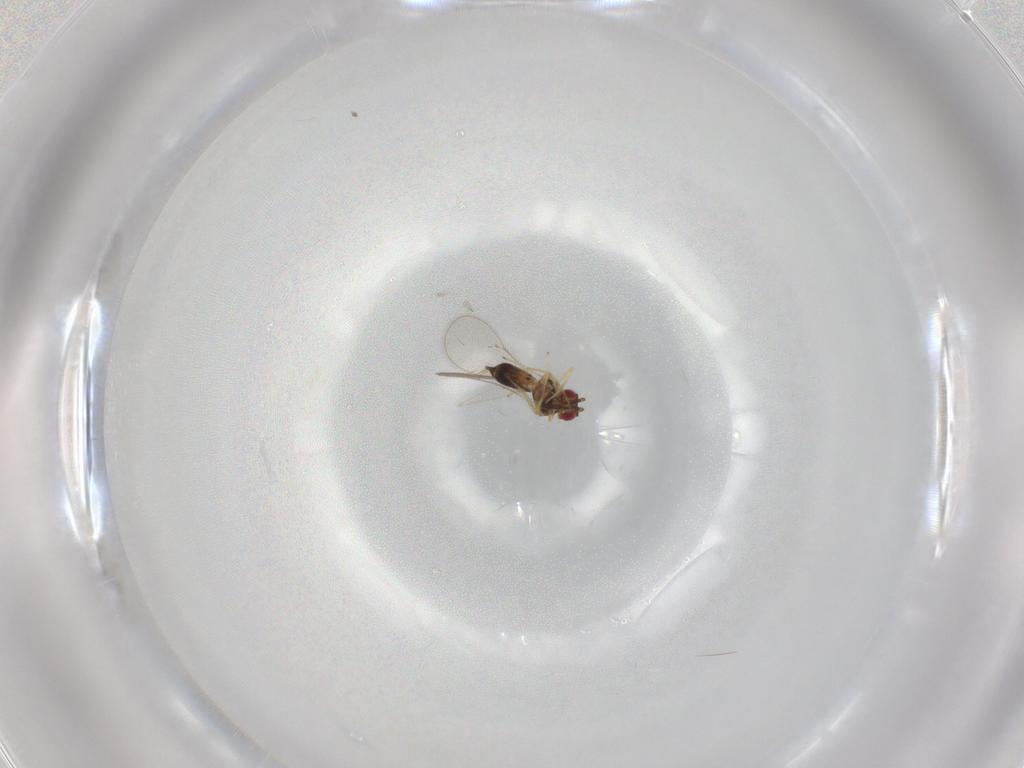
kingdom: Animalia
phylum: Arthropoda
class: Insecta
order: Hymenoptera
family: Eulophidae
